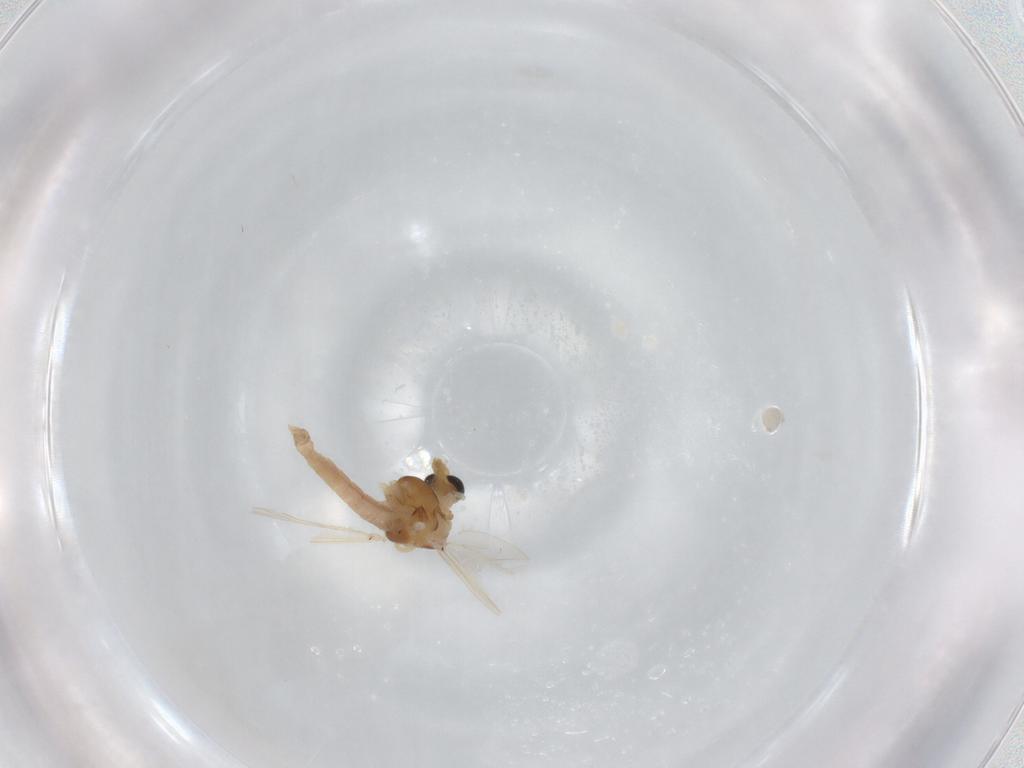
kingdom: Animalia
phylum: Arthropoda
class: Insecta
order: Diptera
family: Chironomidae
